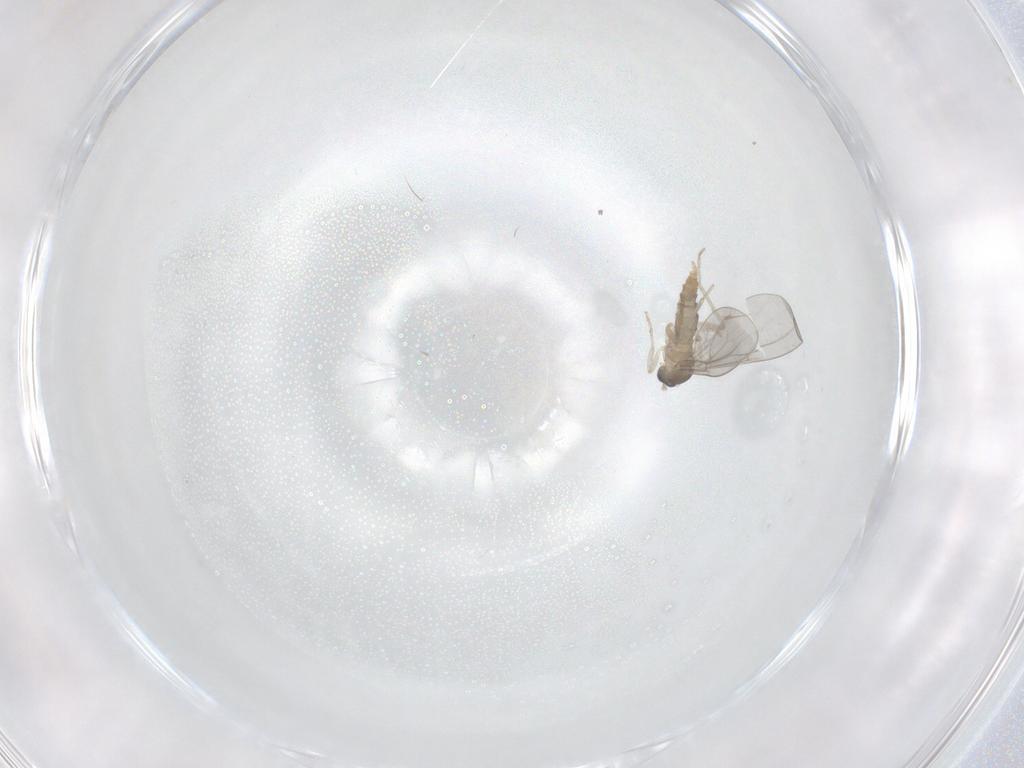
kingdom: Animalia
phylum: Arthropoda
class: Insecta
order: Diptera
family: Cecidomyiidae
